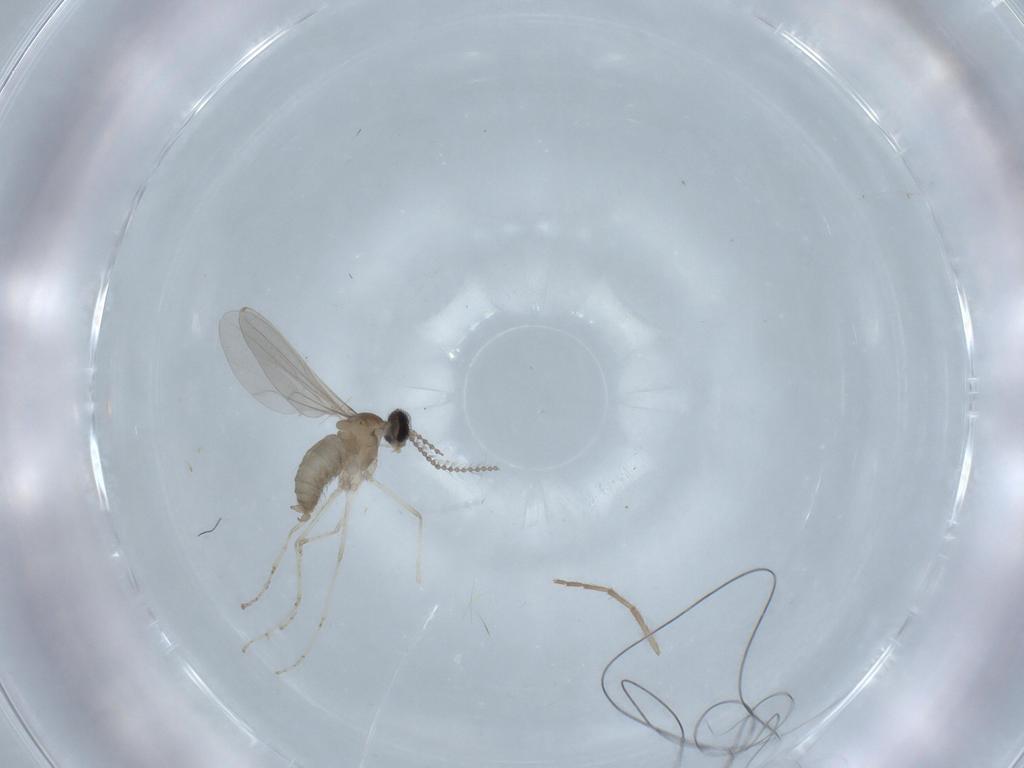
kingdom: Animalia
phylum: Arthropoda
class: Insecta
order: Diptera
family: Cecidomyiidae
